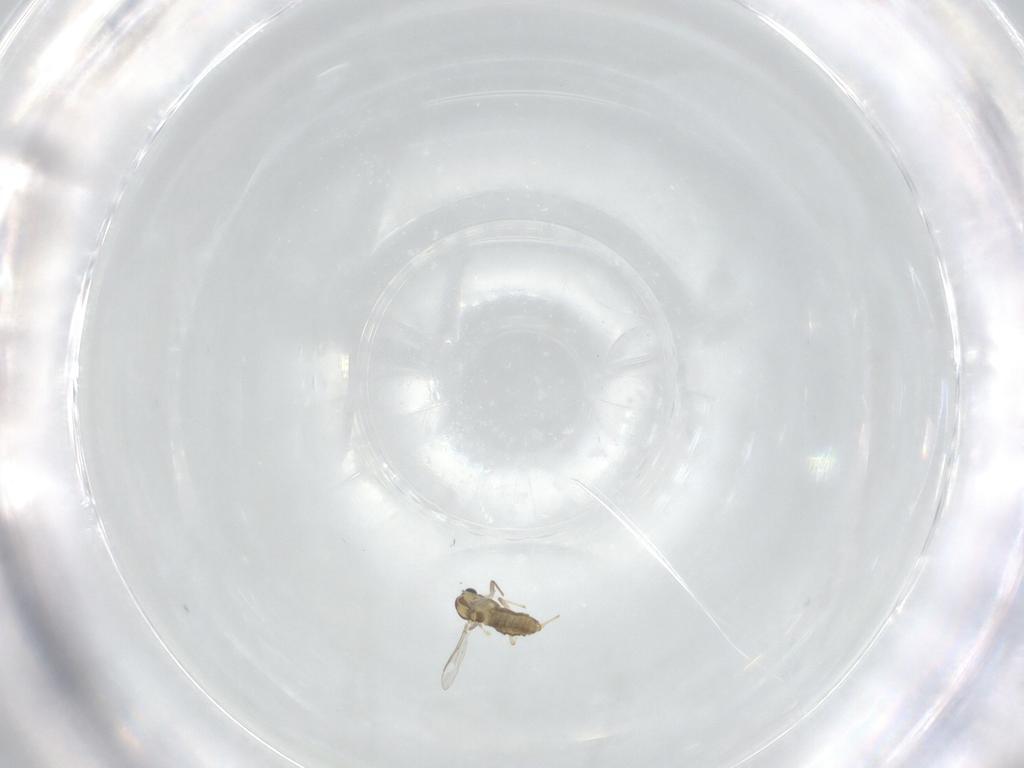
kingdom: Animalia
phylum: Arthropoda
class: Insecta
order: Diptera
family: Chironomidae
